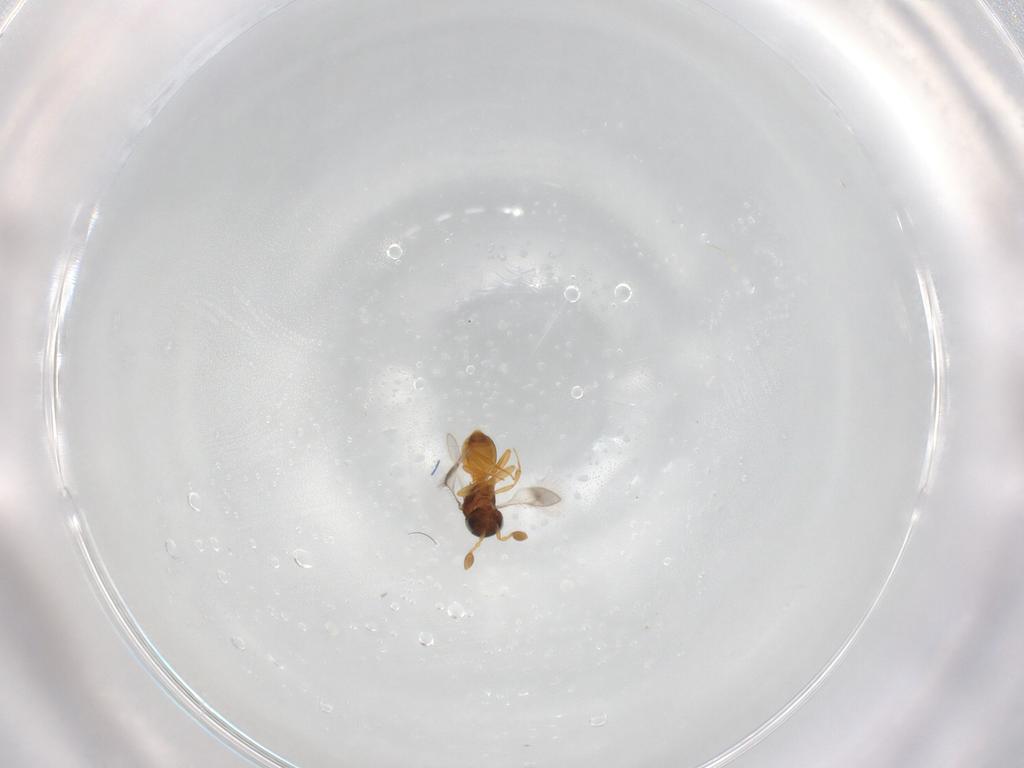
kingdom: Animalia
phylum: Arthropoda
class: Insecta
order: Hymenoptera
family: Scelionidae
